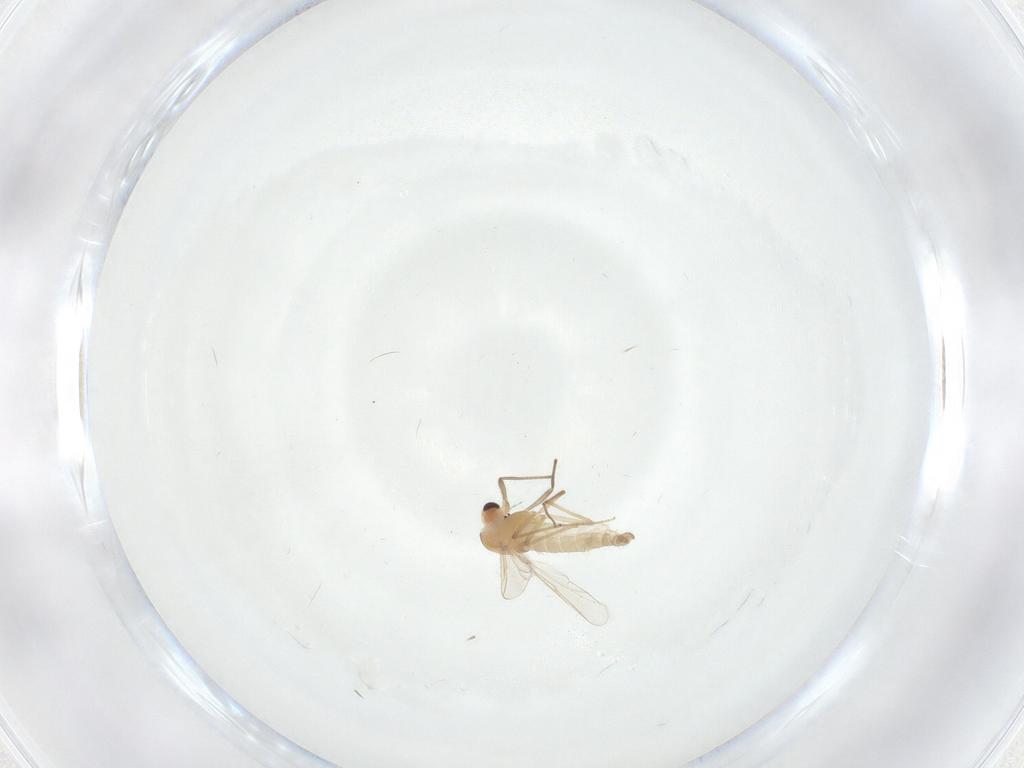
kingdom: Animalia
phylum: Arthropoda
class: Insecta
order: Diptera
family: Chironomidae
